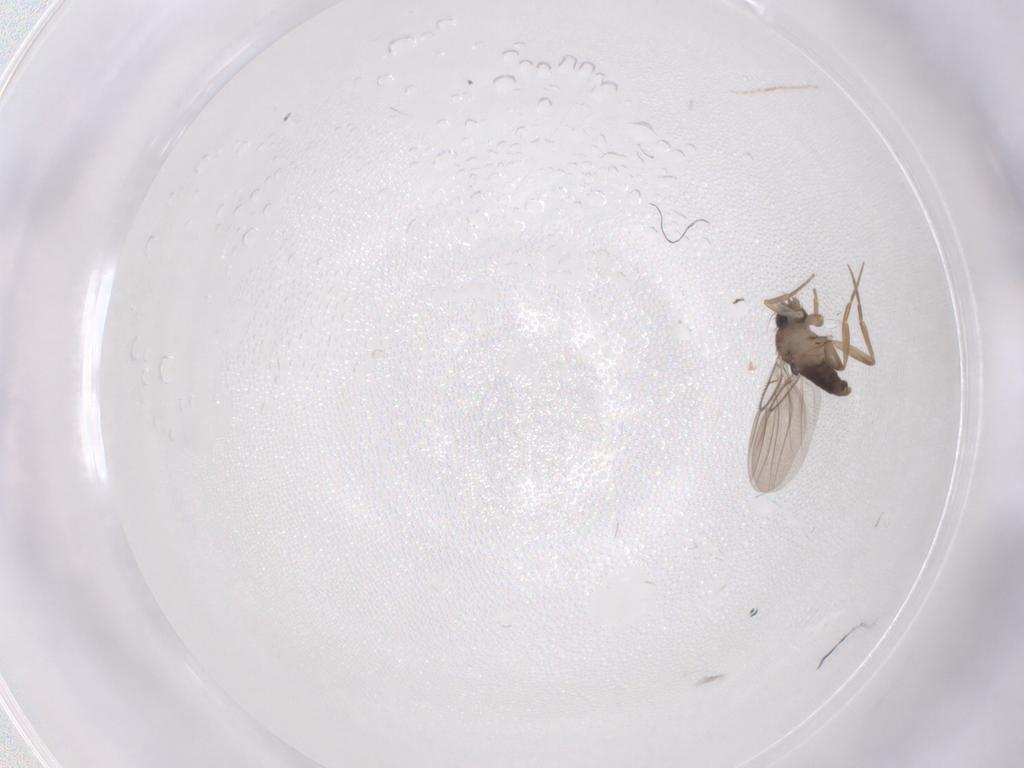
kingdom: Animalia
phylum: Arthropoda
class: Insecta
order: Diptera
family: Phoridae
